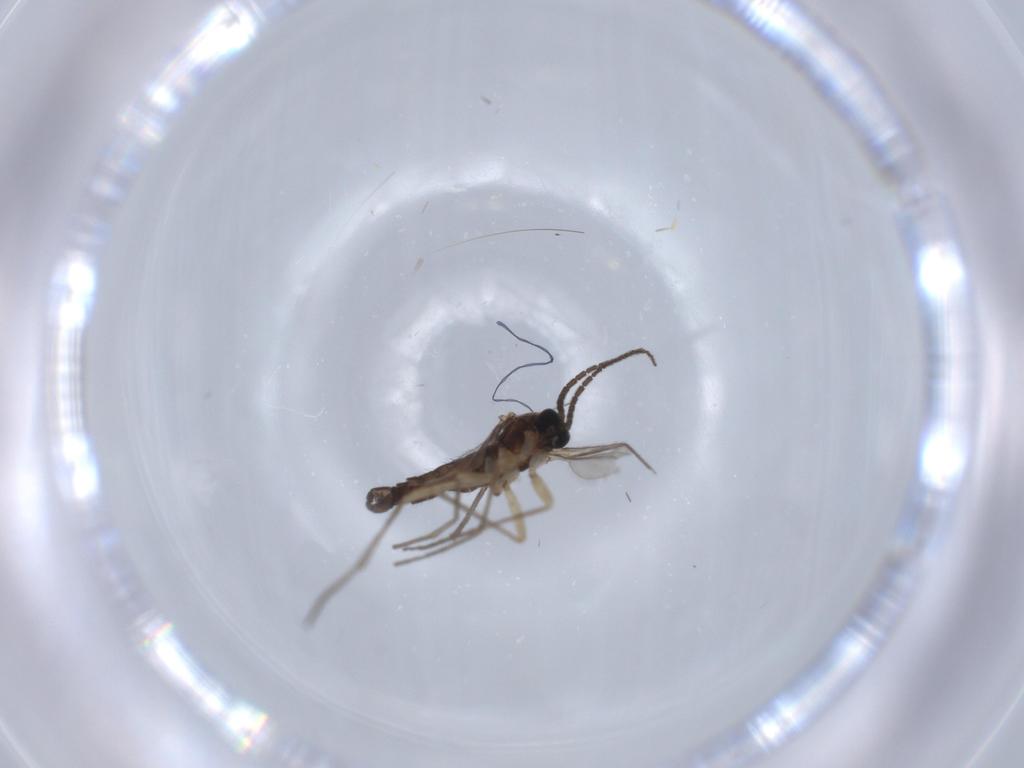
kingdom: Animalia
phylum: Arthropoda
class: Insecta
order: Diptera
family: Sciaridae
